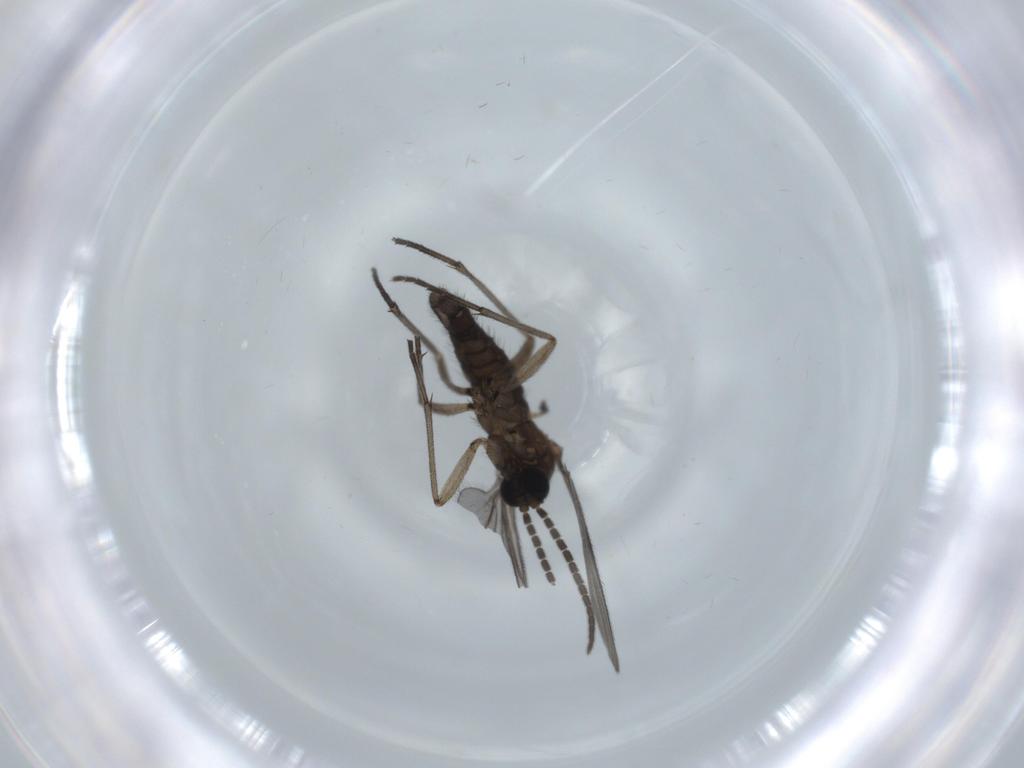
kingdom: Animalia
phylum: Arthropoda
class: Insecta
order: Diptera
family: Sciaridae
